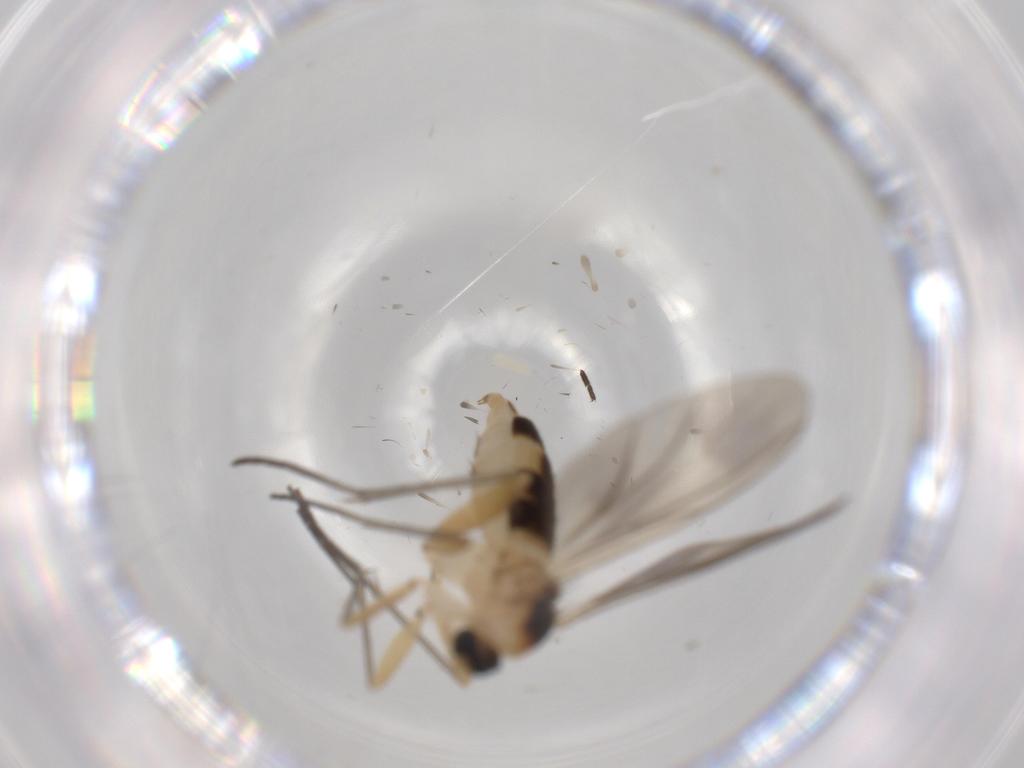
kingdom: Animalia
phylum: Arthropoda
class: Insecta
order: Diptera
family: Sciaridae
